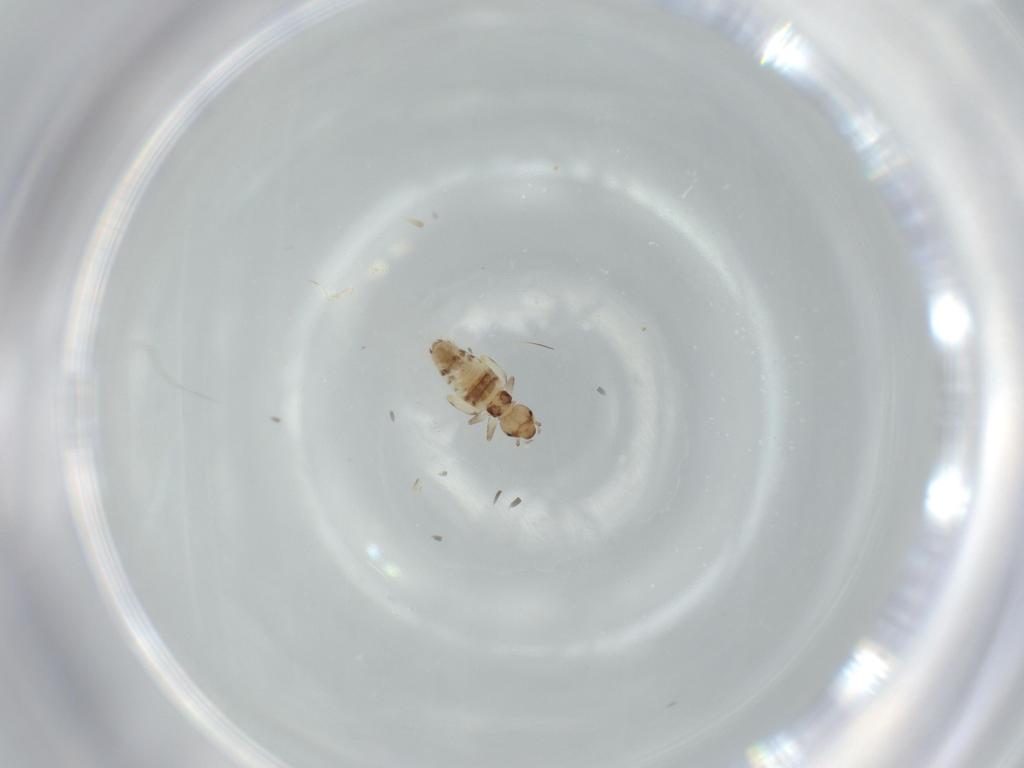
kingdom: Animalia
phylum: Arthropoda
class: Insecta
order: Psocodea
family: Liposcelididae
